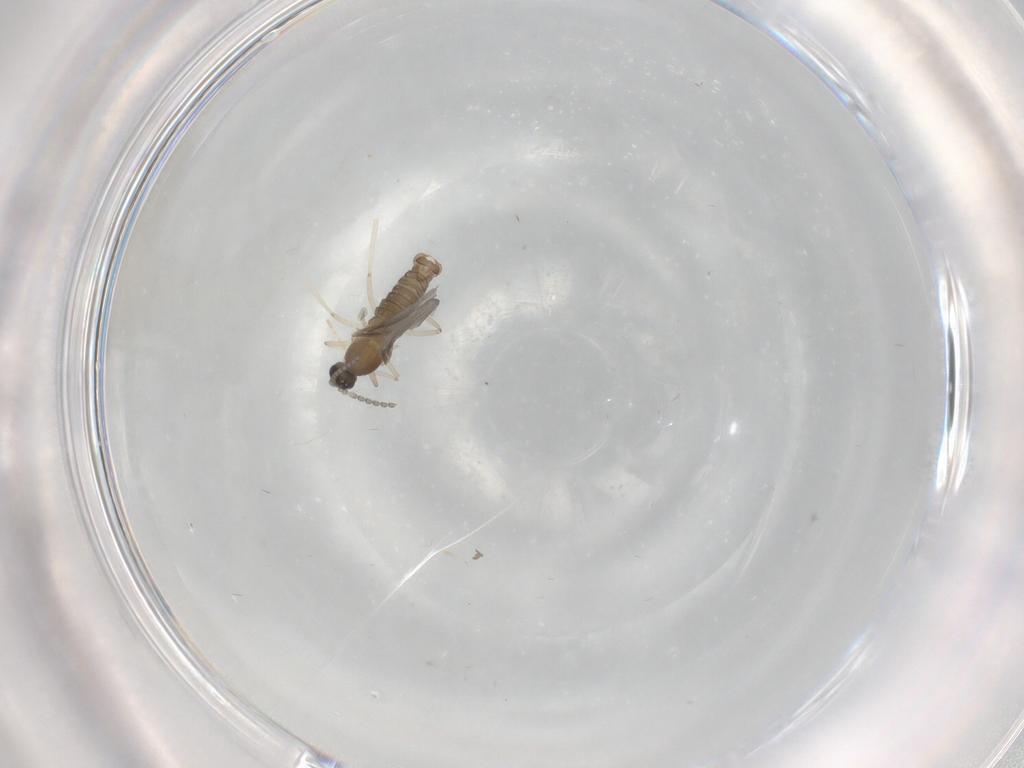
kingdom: Animalia
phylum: Arthropoda
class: Insecta
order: Diptera
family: Cecidomyiidae
